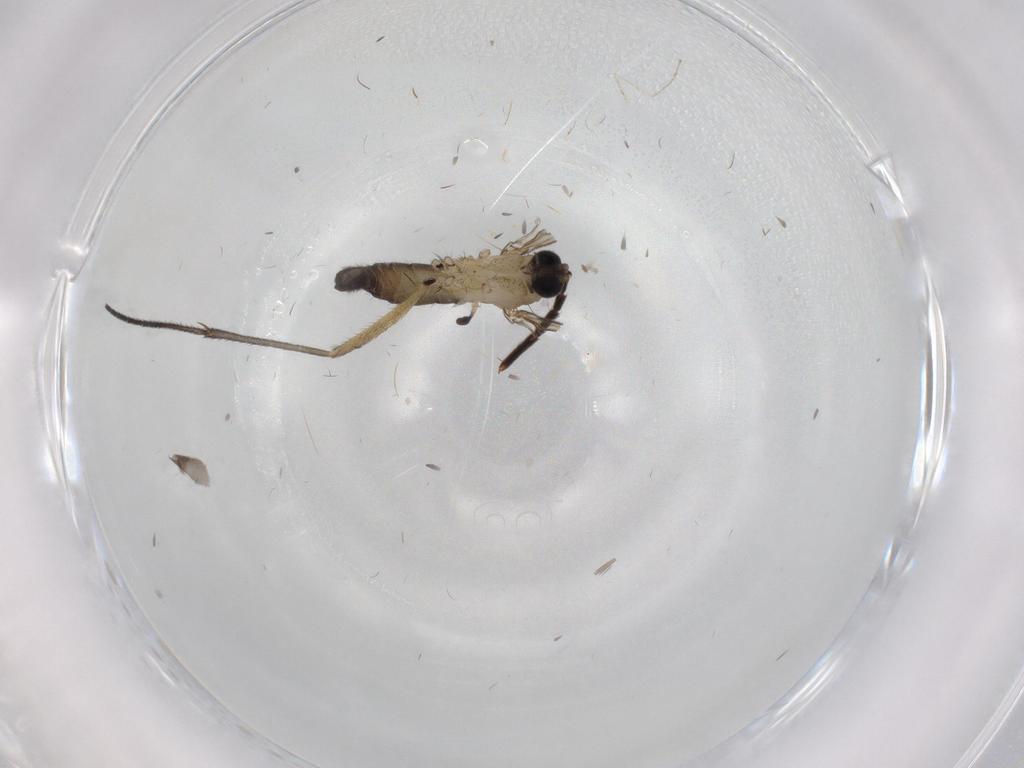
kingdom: Animalia
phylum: Arthropoda
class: Insecta
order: Diptera
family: Sciaridae
